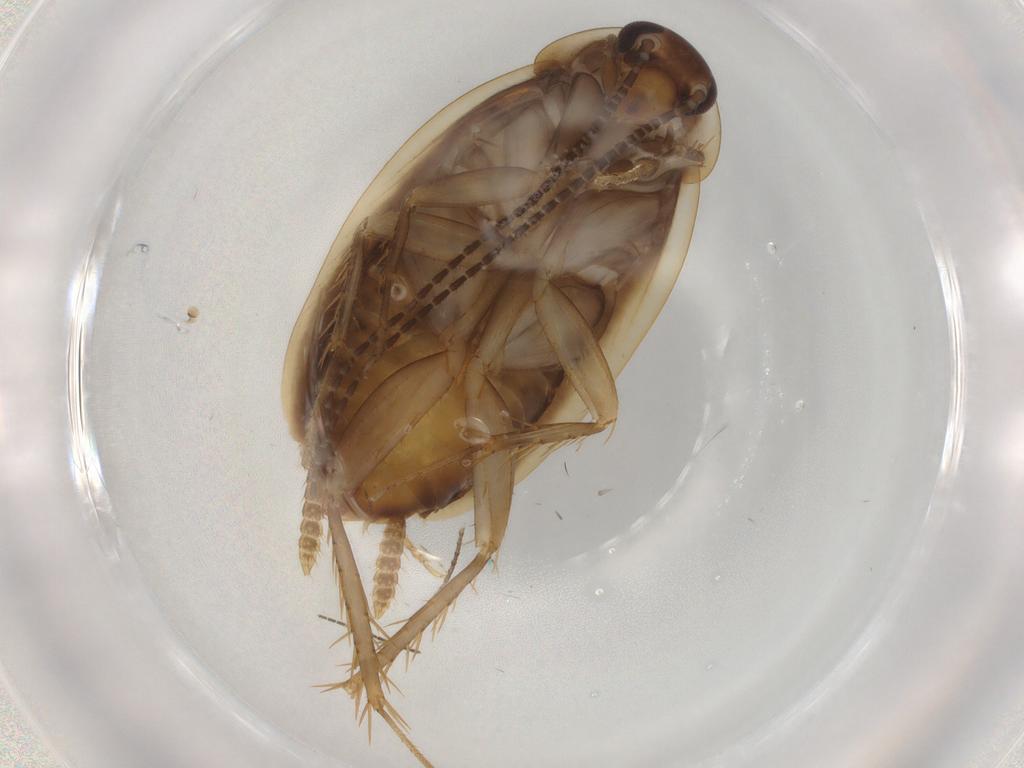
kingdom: Animalia
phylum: Arthropoda
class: Insecta
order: Blattodea
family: Ectobiidae
